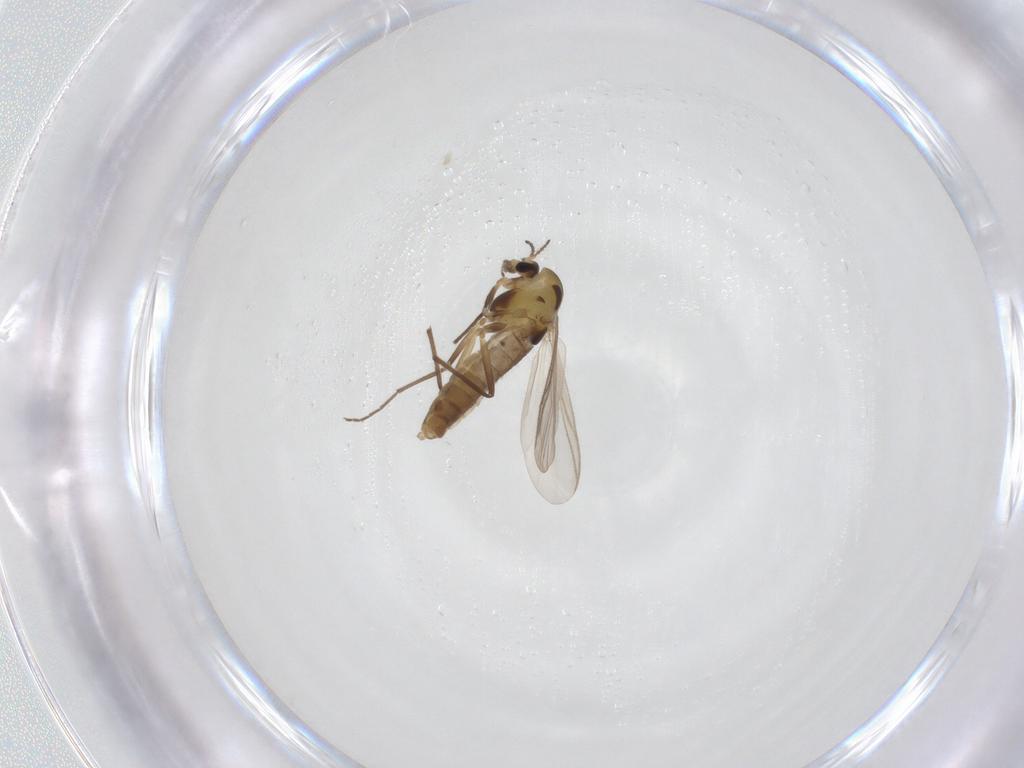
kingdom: Animalia
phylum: Arthropoda
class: Insecta
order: Diptera
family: Chironomidae
